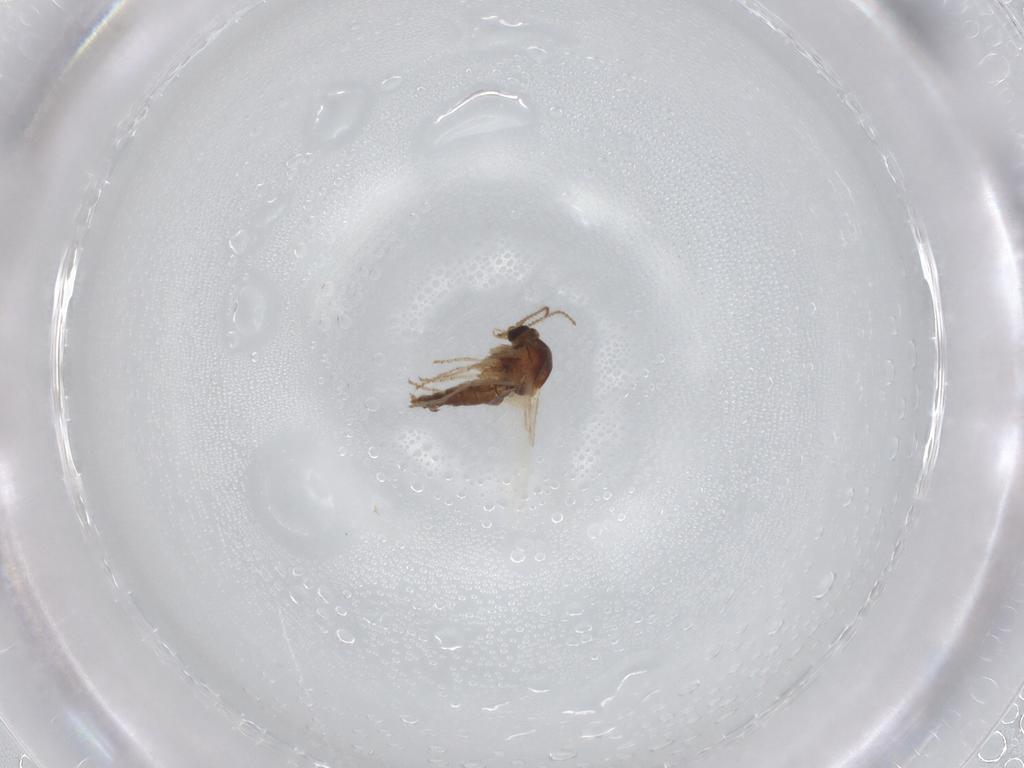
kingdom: Animalia
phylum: Arthropoda
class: Insecta
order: Diptera
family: Ceratopogonidae
